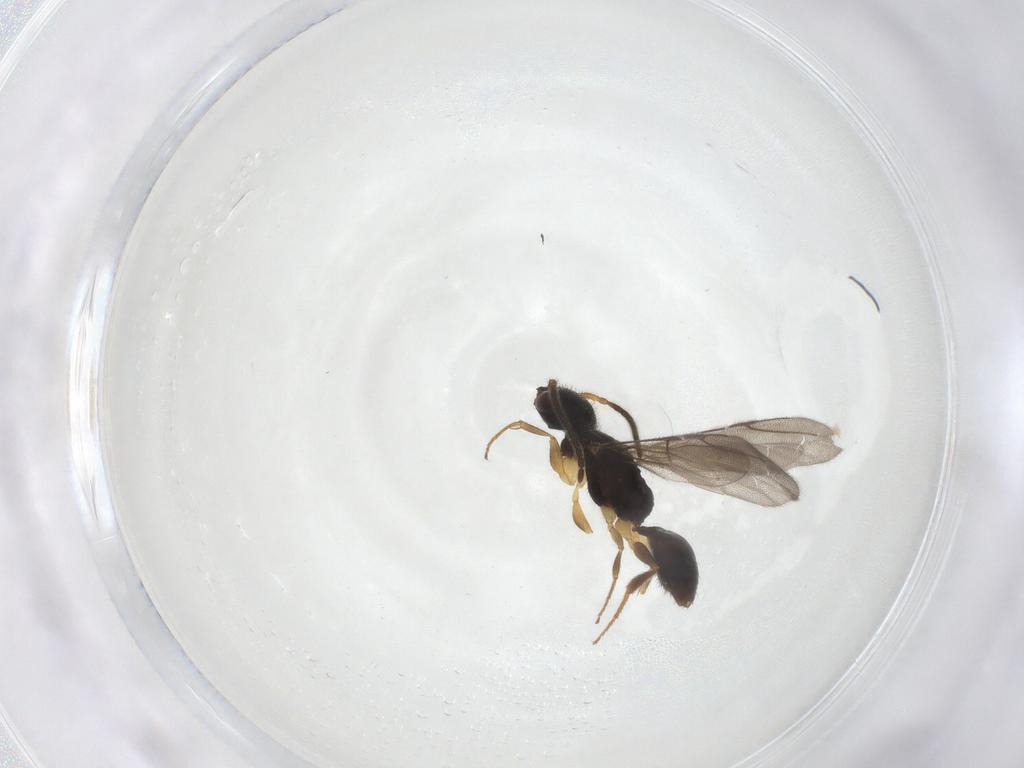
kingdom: Animalia
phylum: Arthropoda
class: Insecta
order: Hymenoptera
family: Bethylidae
